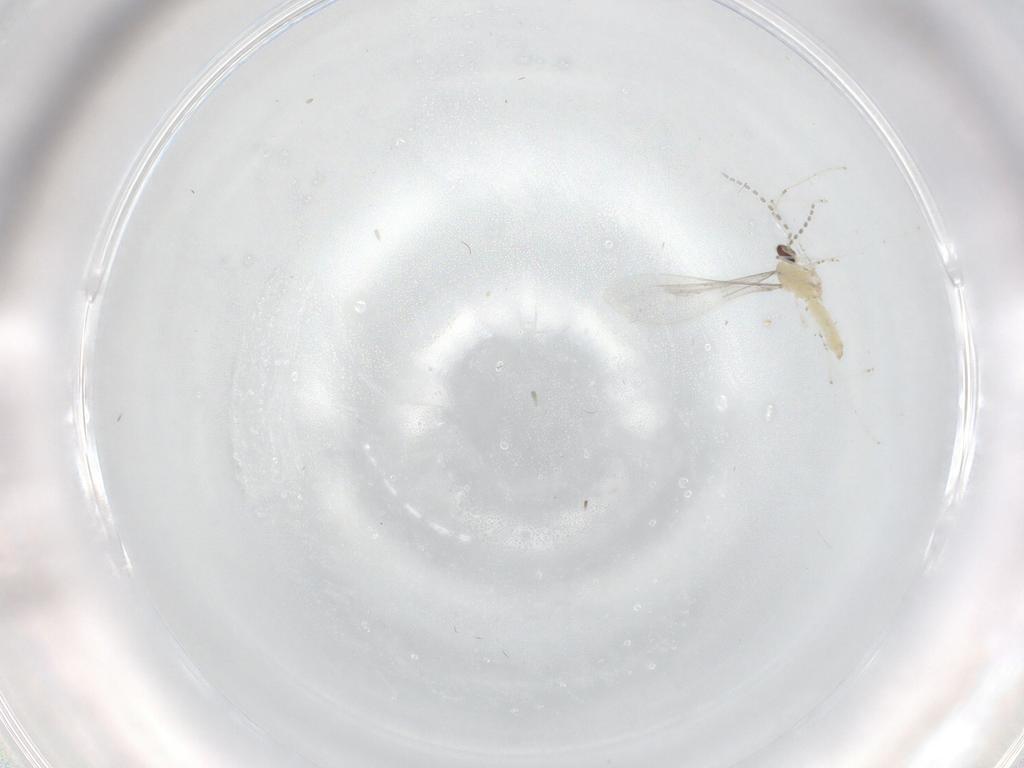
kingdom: Animalia
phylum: Arthropoda
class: Insecta
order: Diptera
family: Cecidomyiidae
